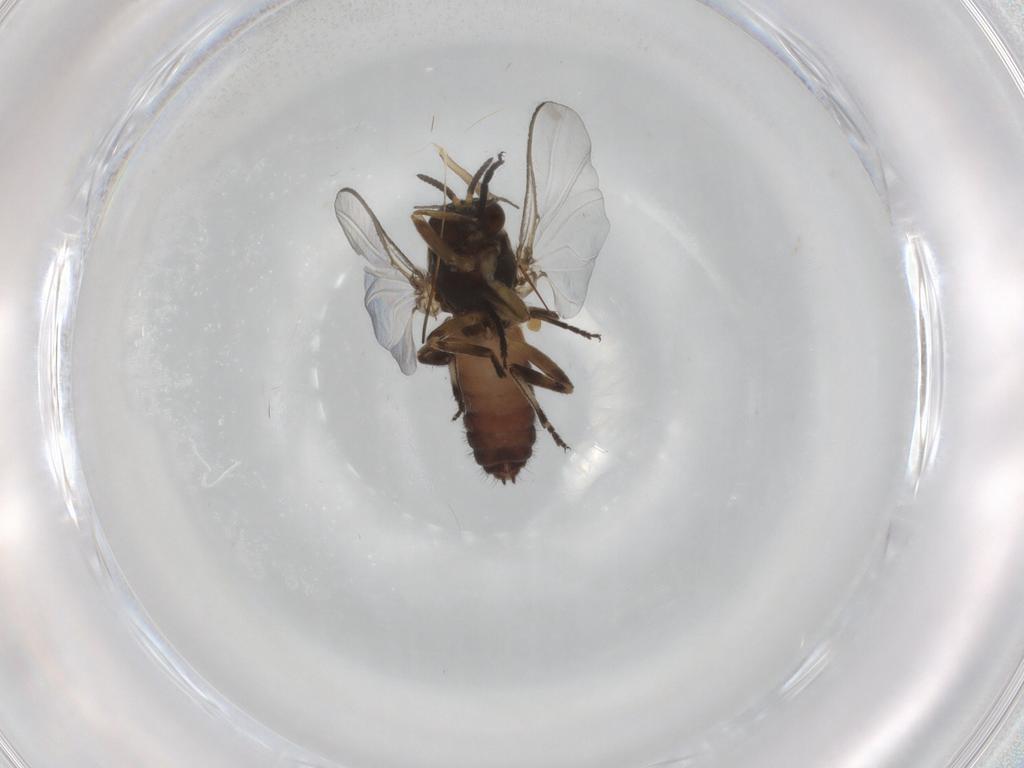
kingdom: Animalia
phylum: Arthropoda
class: Insecta
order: Diptera
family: Simuliidae
